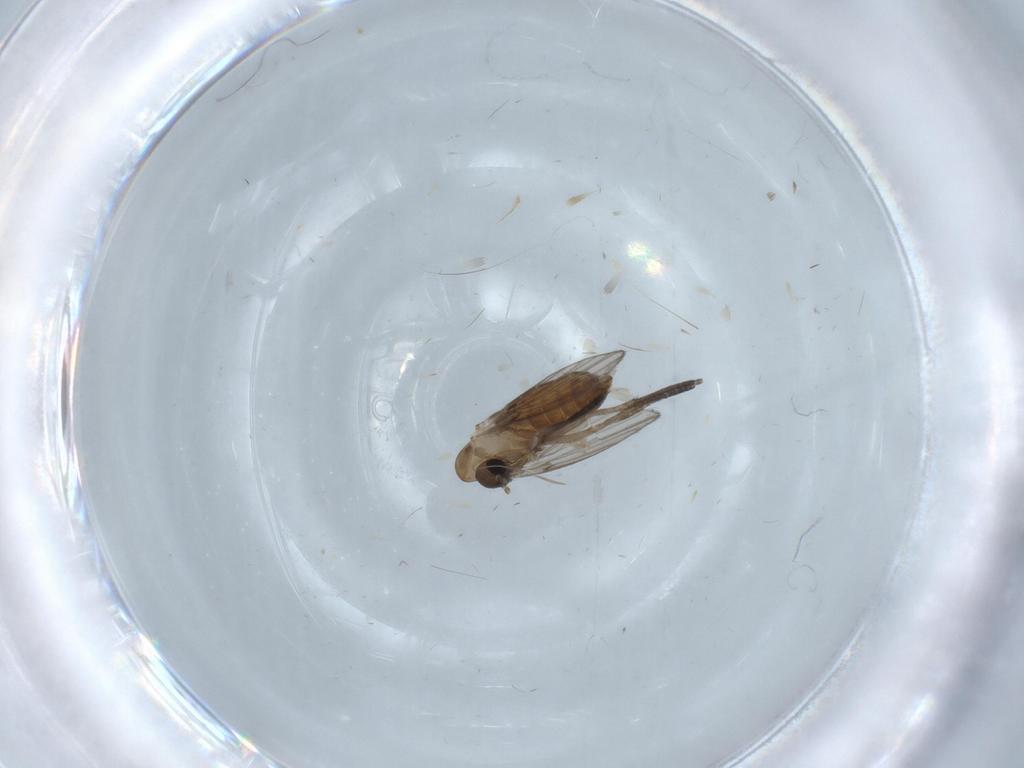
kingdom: Animalia
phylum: Arthropoda
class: Insecta
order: Diptera
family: Psychodidae
